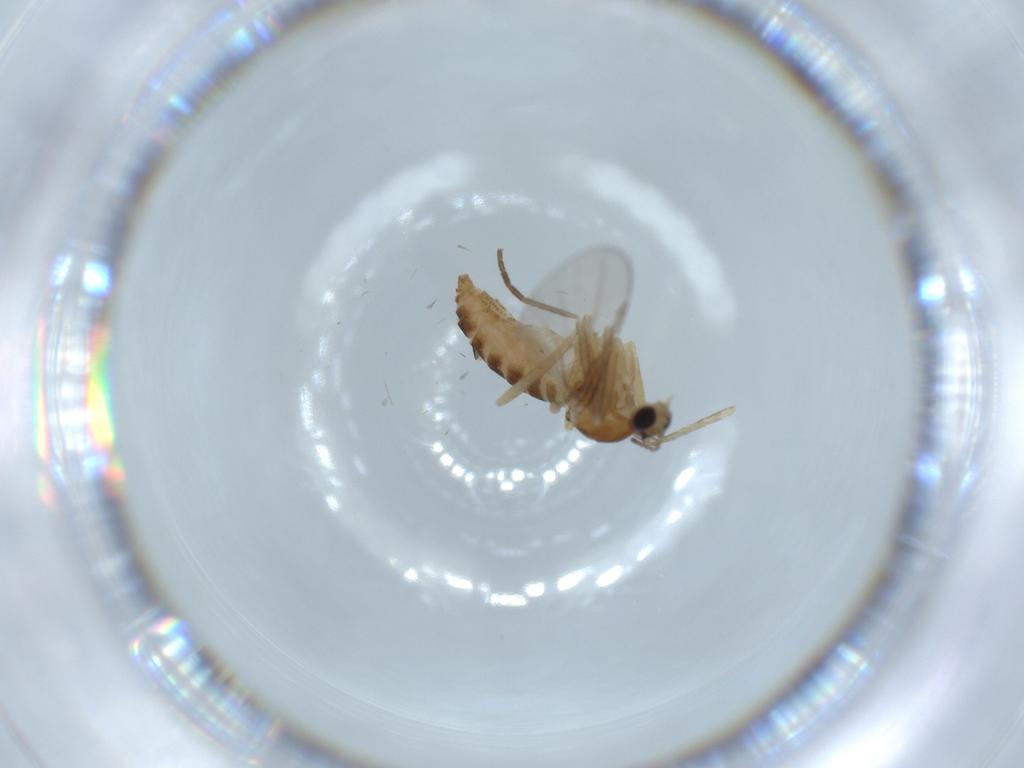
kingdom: Animalia
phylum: Arthropoda
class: Insecta
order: Diptera
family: Cecidomyiidae
